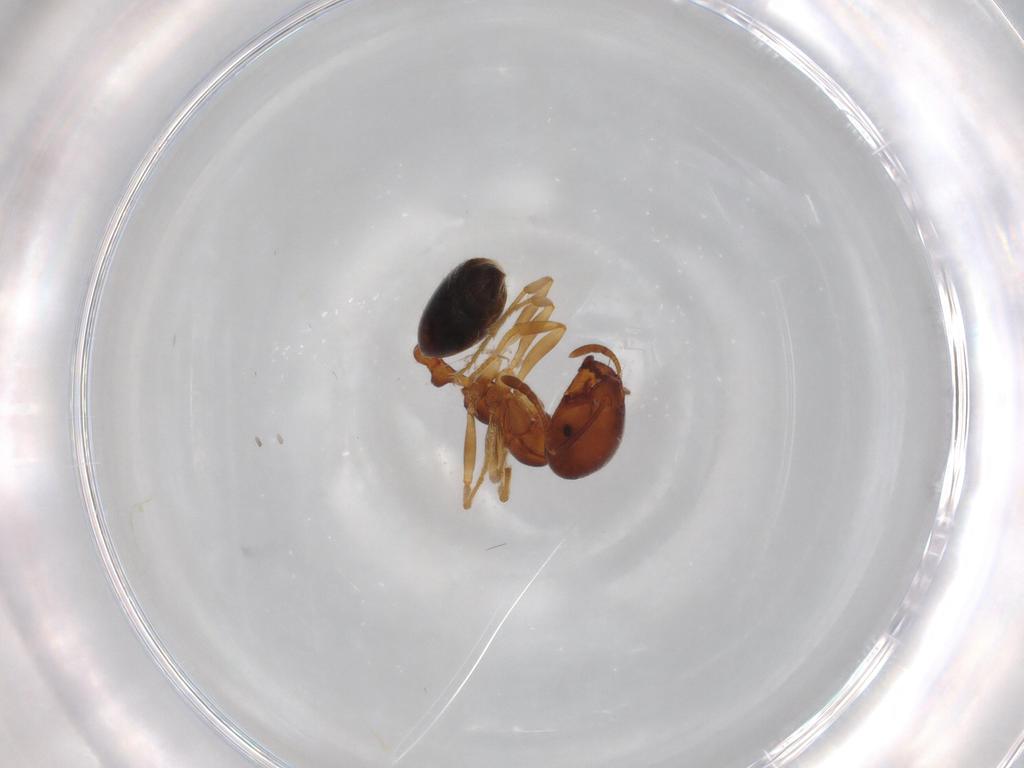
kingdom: Animalia
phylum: Arthropoda
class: Insecta
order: Hymenoptera
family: Formicidae
